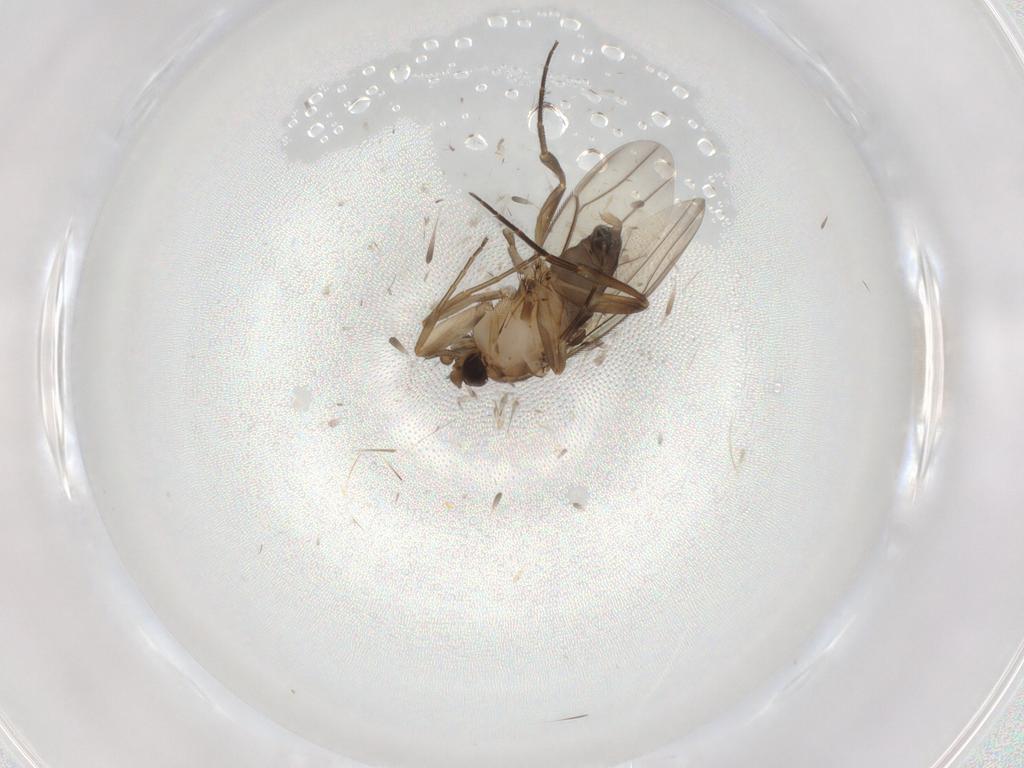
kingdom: Animalia
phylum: Arthropoda
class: Insecta
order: Diptera
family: Phoridae
